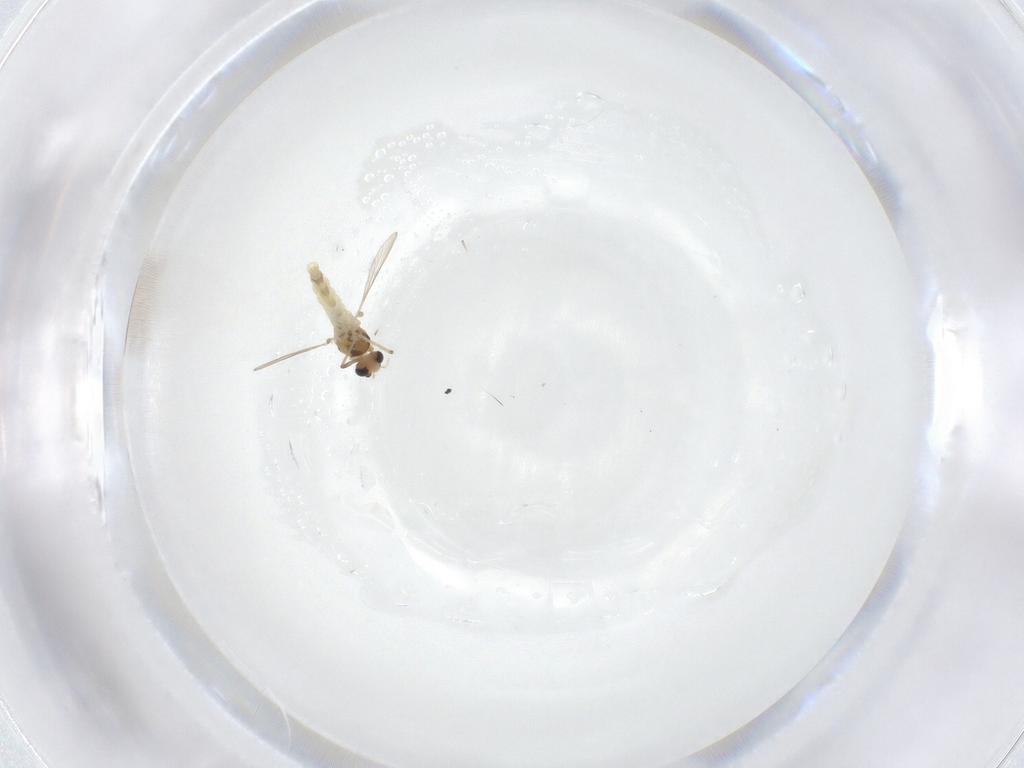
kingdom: Animalia
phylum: Arthropoda
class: Insecta
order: Diptera
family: Chironomidae
